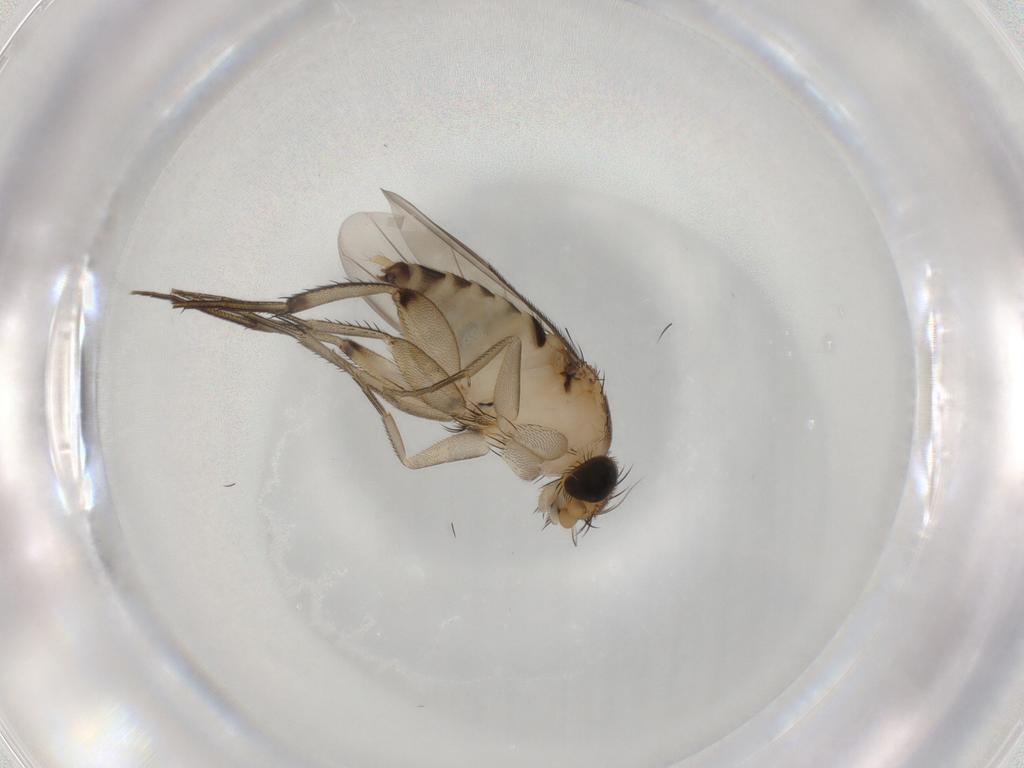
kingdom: Animalia
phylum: Arthropoda
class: Insecta
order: Diptera
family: Phoridae
